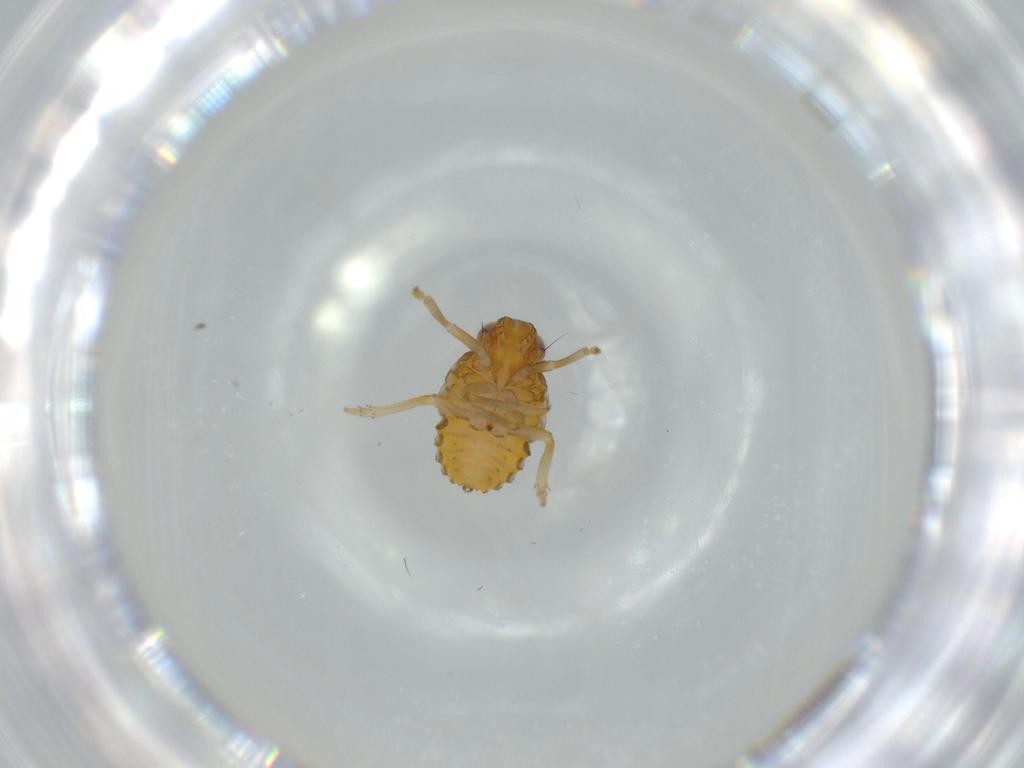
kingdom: Animalia
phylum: Arthropoda
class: Insecta
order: Hemiptera
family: Issidae
